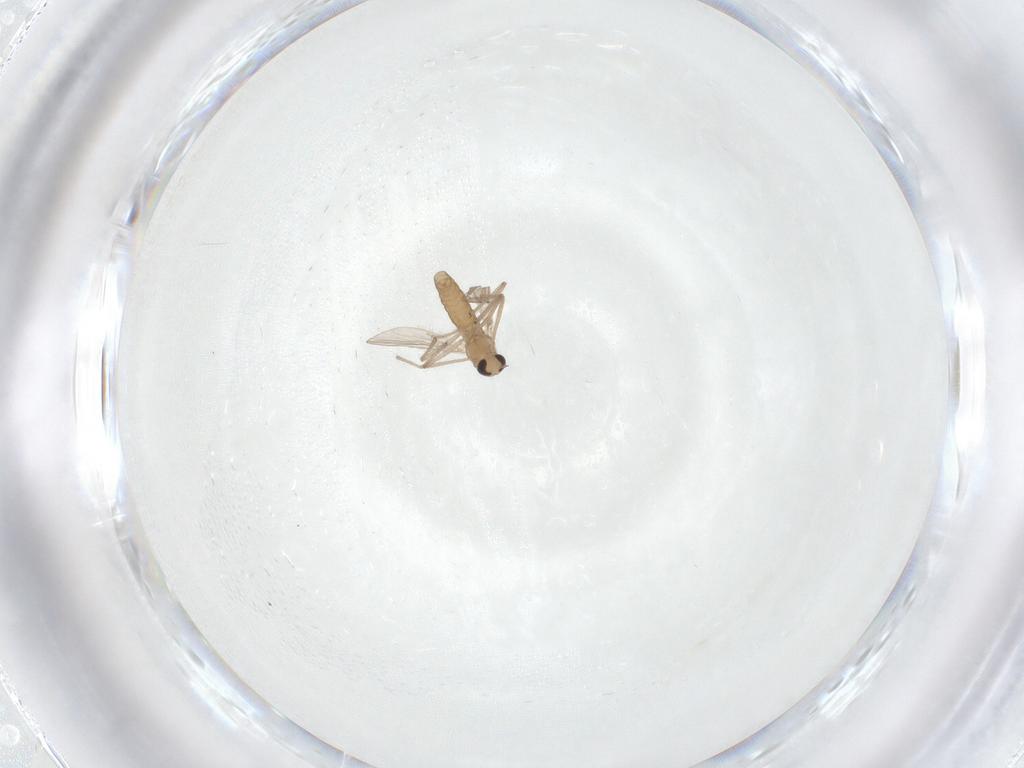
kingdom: Animalia
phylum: Arthropoda
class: Insecta
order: Diptera
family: Chironomidae
